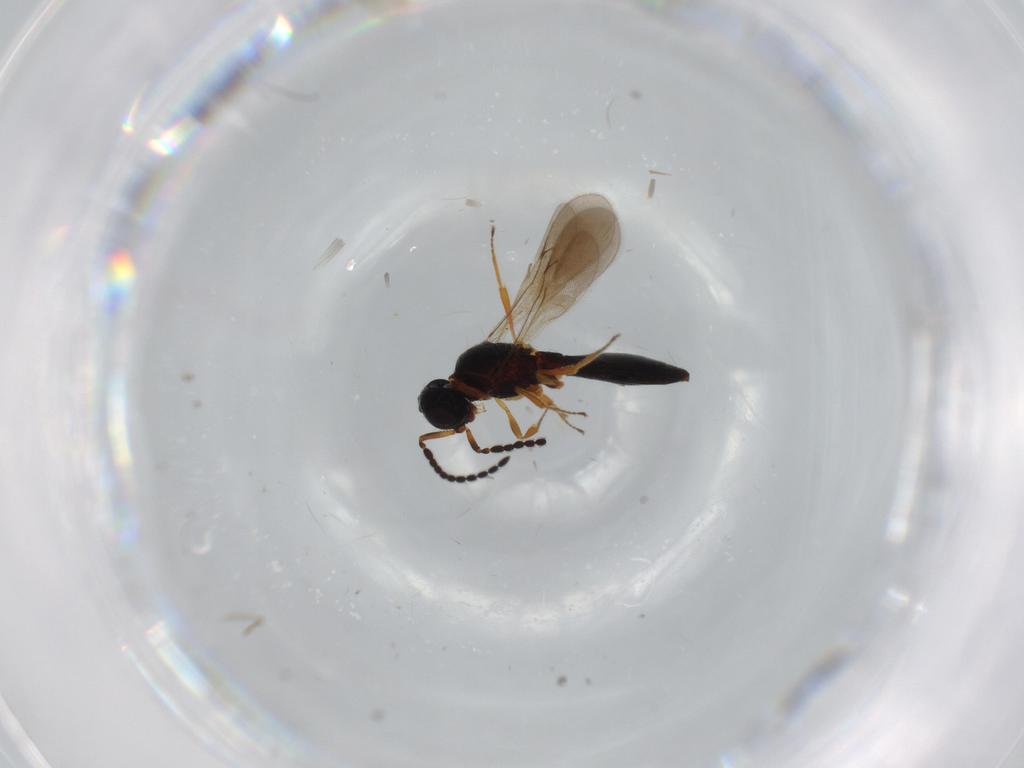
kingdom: Animalia
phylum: Arthropoda
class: Insecta
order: Hymenoptera
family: Scelionidae
